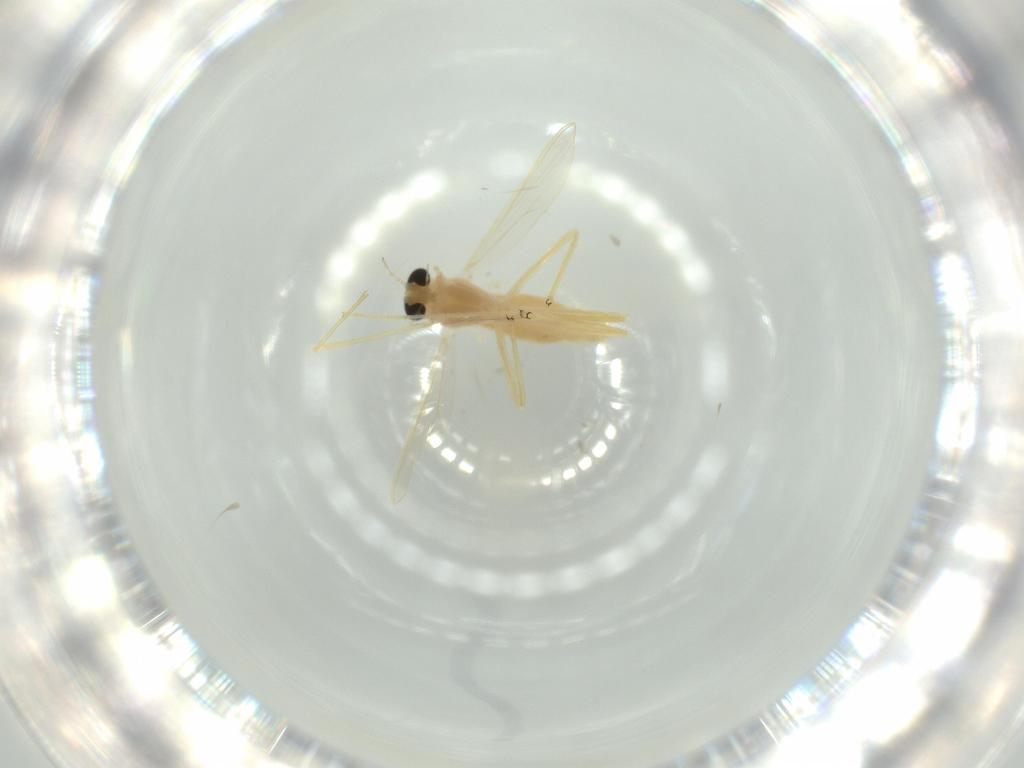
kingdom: Animalia
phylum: Arthropoda
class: Insecta
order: Diptera
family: Chironomidae
